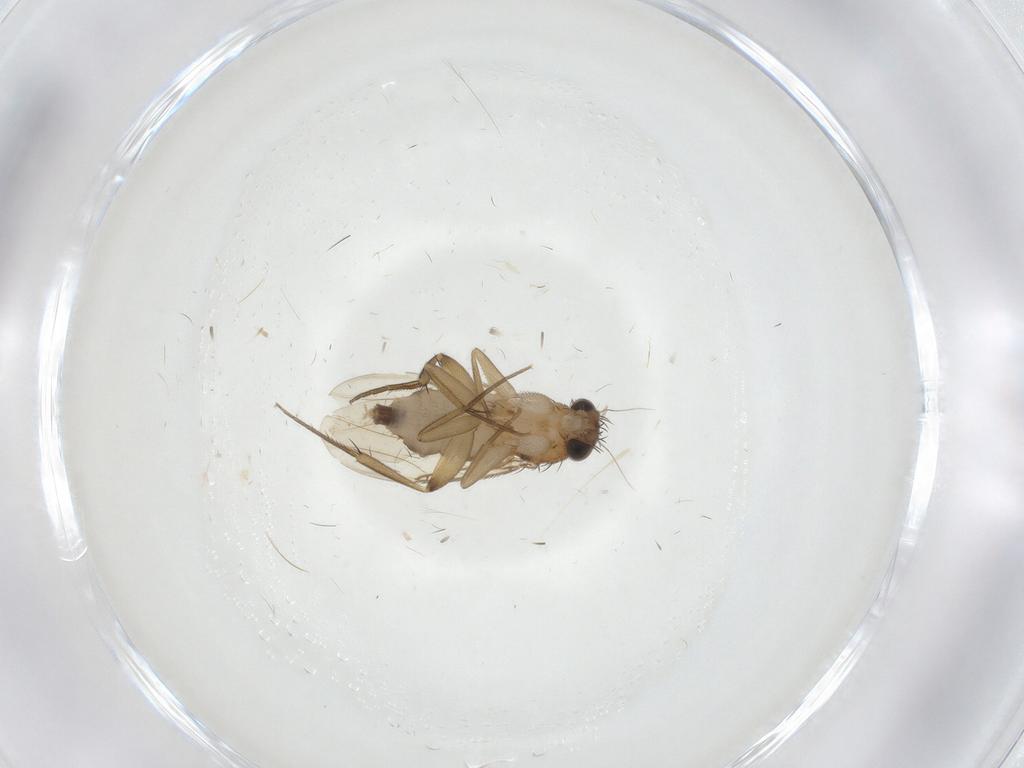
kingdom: Animalia
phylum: Arthropoda
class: Insecta
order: Diptera
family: Phoridae
